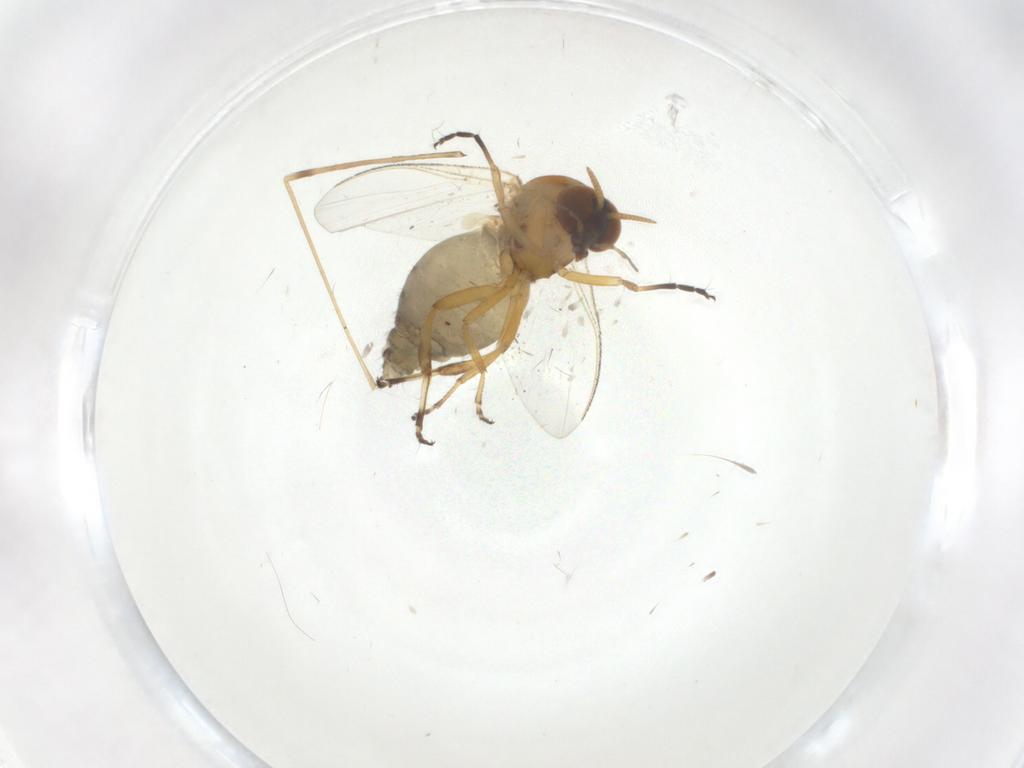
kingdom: Animalia
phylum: Arthropoda
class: Insecta
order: Diptera
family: Simuliidae
